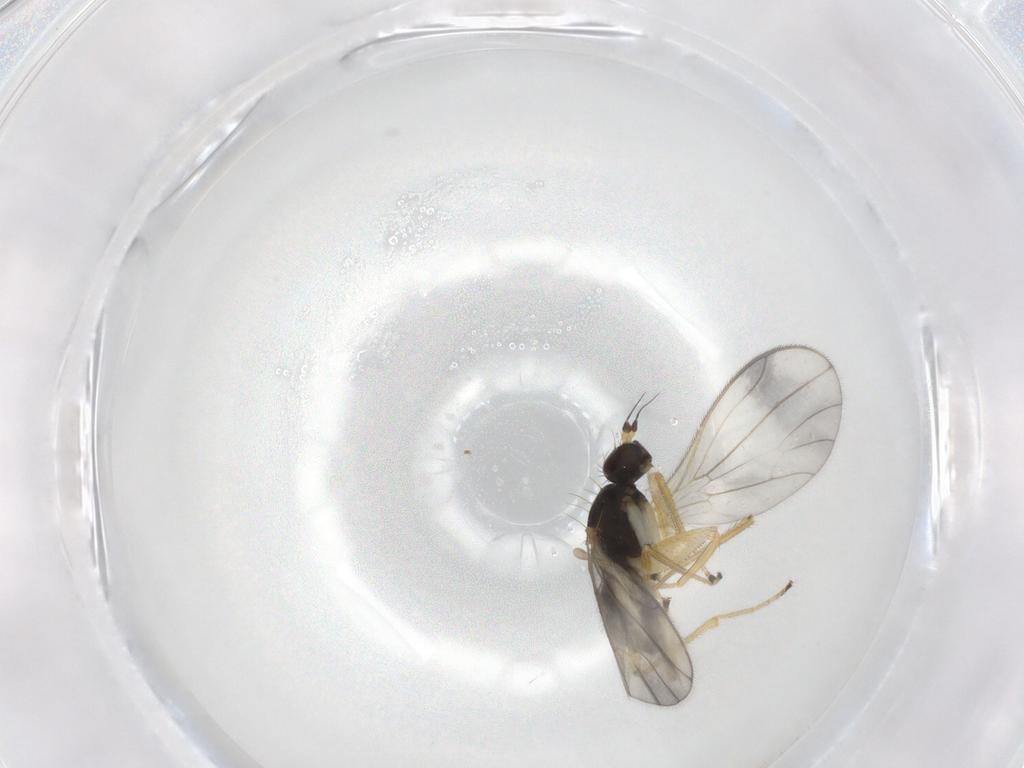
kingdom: Animalia
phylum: Arthropoda
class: Insecta
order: Diptera
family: Empididae
